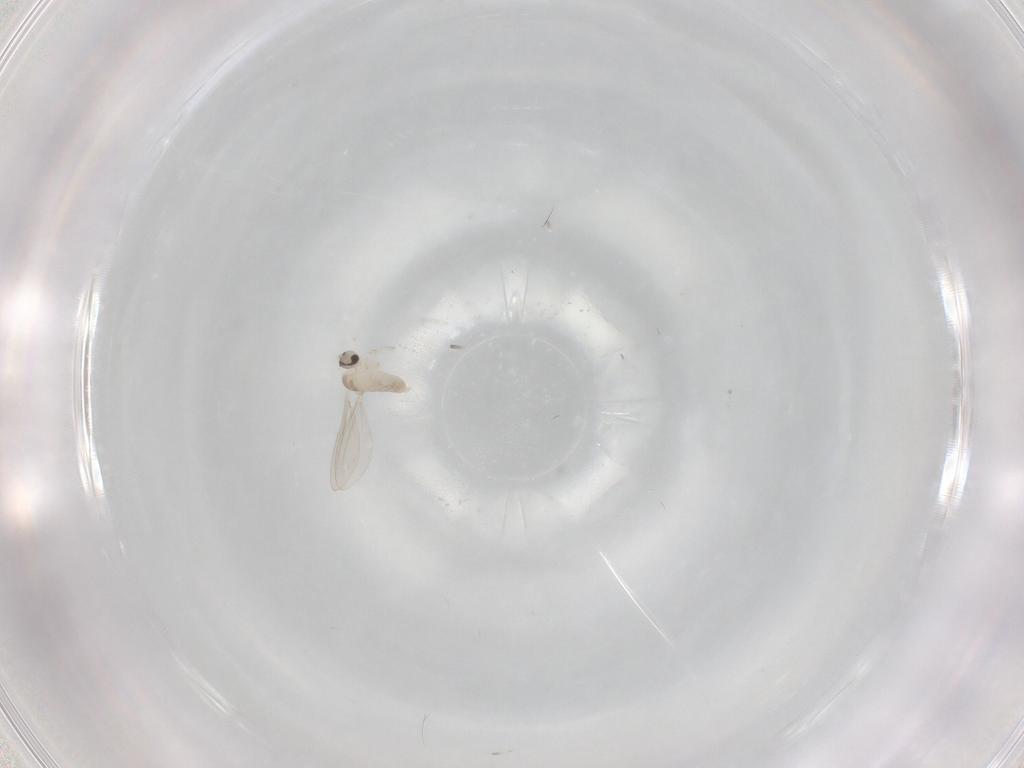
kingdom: Animalia
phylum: Arthropoda
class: Insecta
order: Diptera
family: Cecidomyiidae
